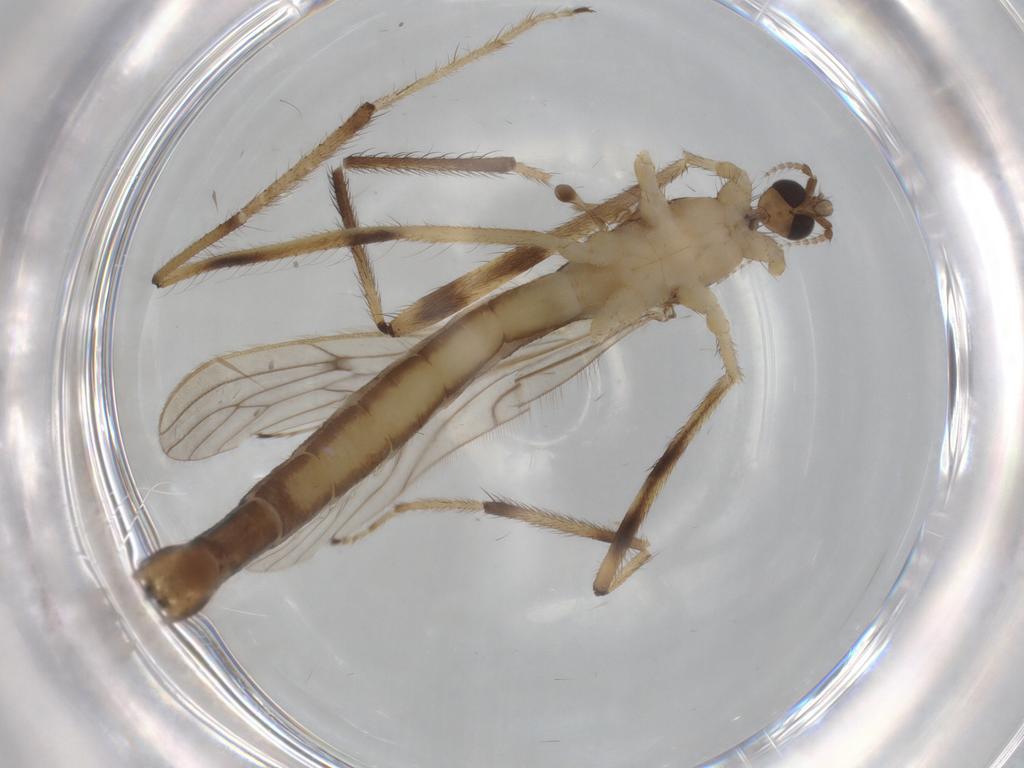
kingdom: Animalia
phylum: Arthropoda
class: Insecta
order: Diptera
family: Limoniidae
